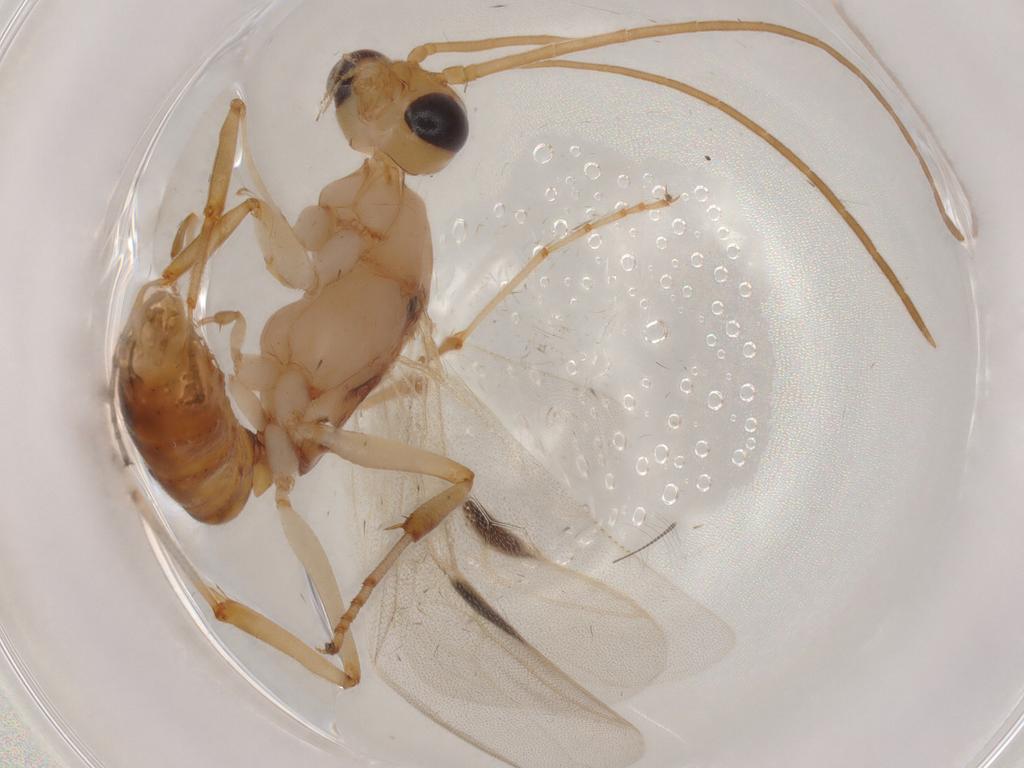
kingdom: Animalia
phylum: Arthropoda
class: Insecta
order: Hymenoptera
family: Formicidae
